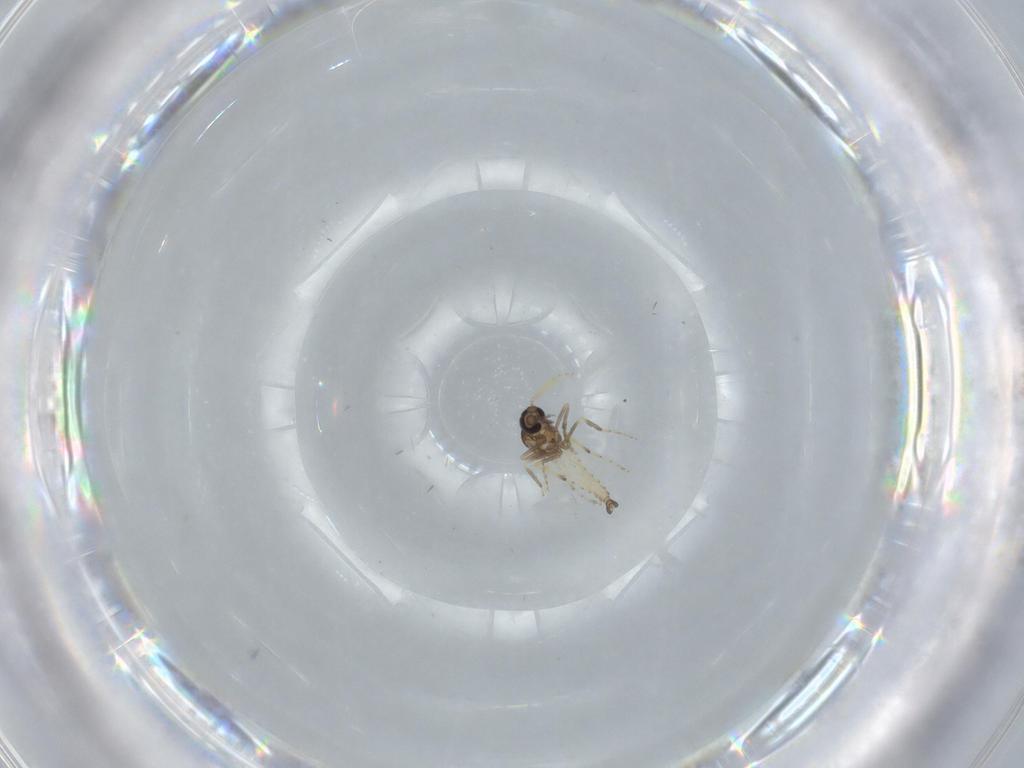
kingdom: Animalia
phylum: Arthropoda
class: Insecta
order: Diptera
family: Ceratopogonidae
